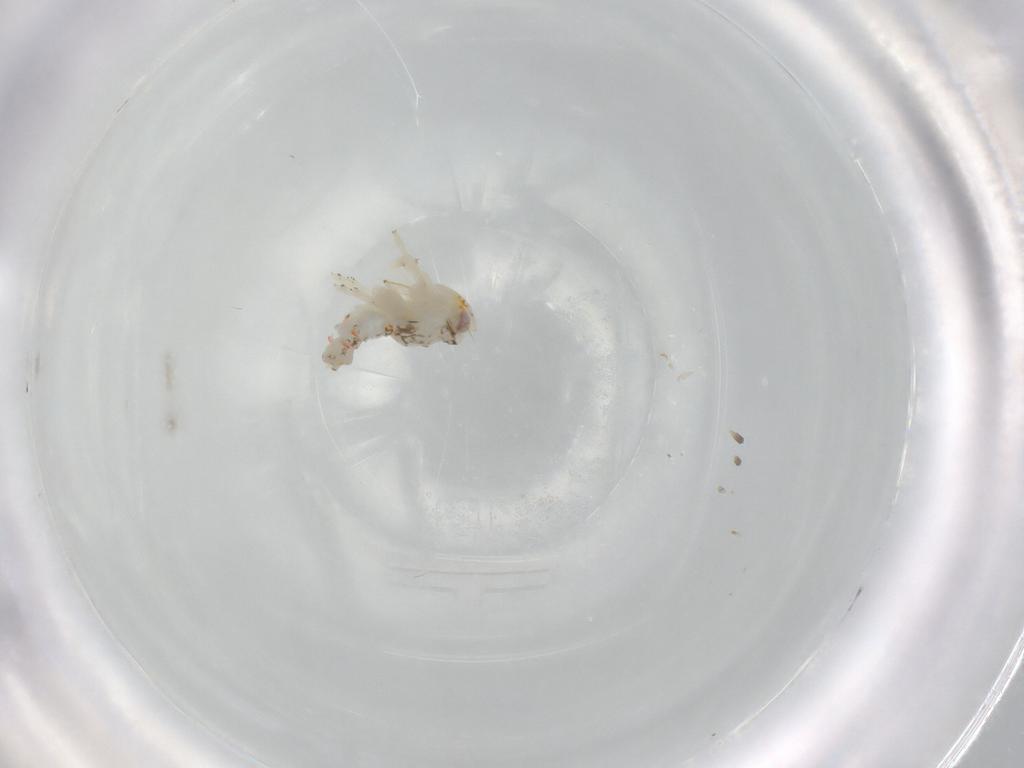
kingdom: Animalia
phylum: Arthropoda
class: Insecta
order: Hemiptera
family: Nogodinidae
